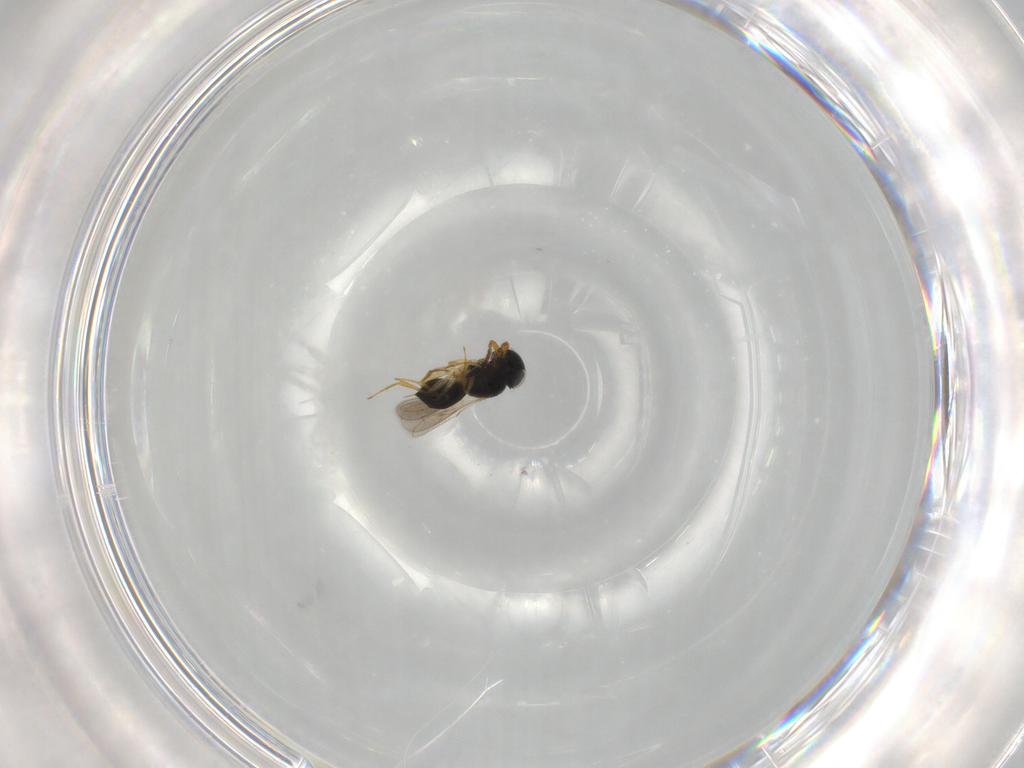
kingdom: Animalia
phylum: Arthropoda
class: Insecta
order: Hymenoptera
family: Scelionidae
